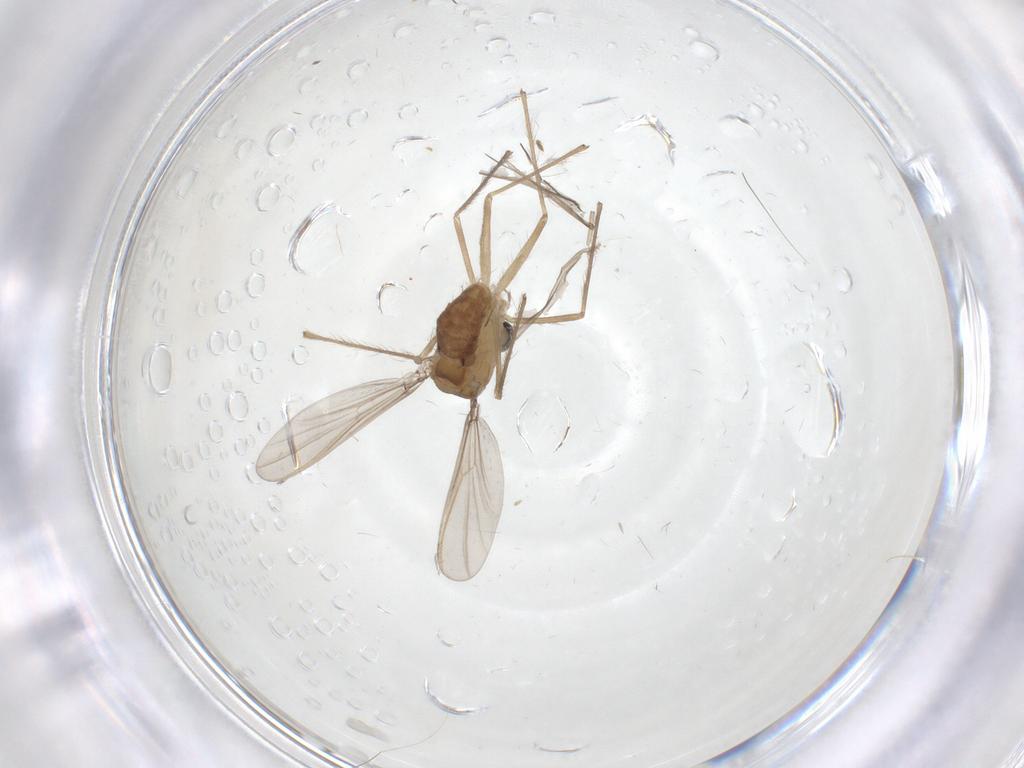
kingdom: Animalia
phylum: Arthropoda
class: Insecta
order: Diptera
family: Chironomidae
